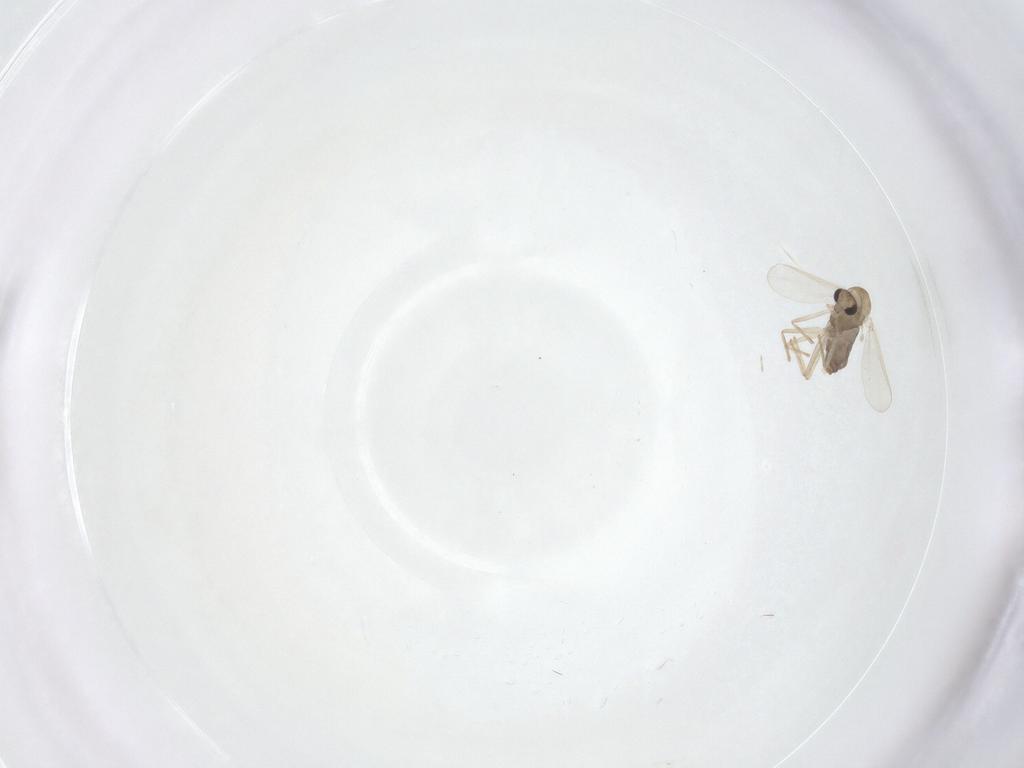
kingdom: Animalia
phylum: Arthropoda
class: Insecta
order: Diptera
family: Chironomidae
